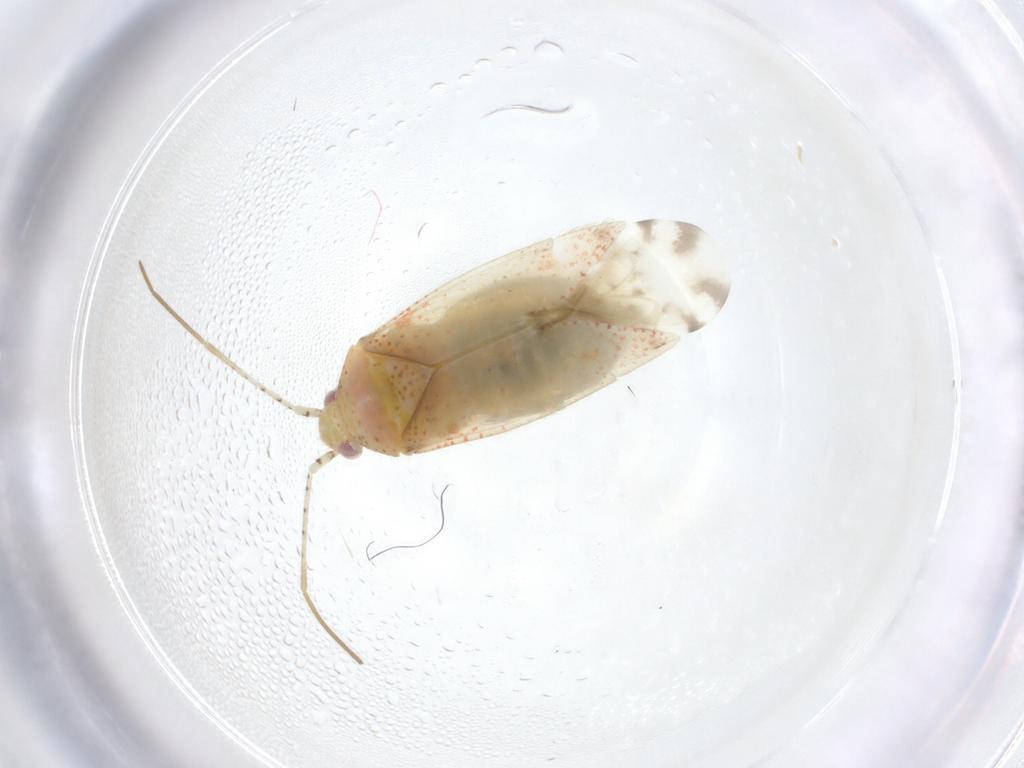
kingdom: Animalia
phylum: Arthropoda
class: Insecta
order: Hemiptera
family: Miridae
